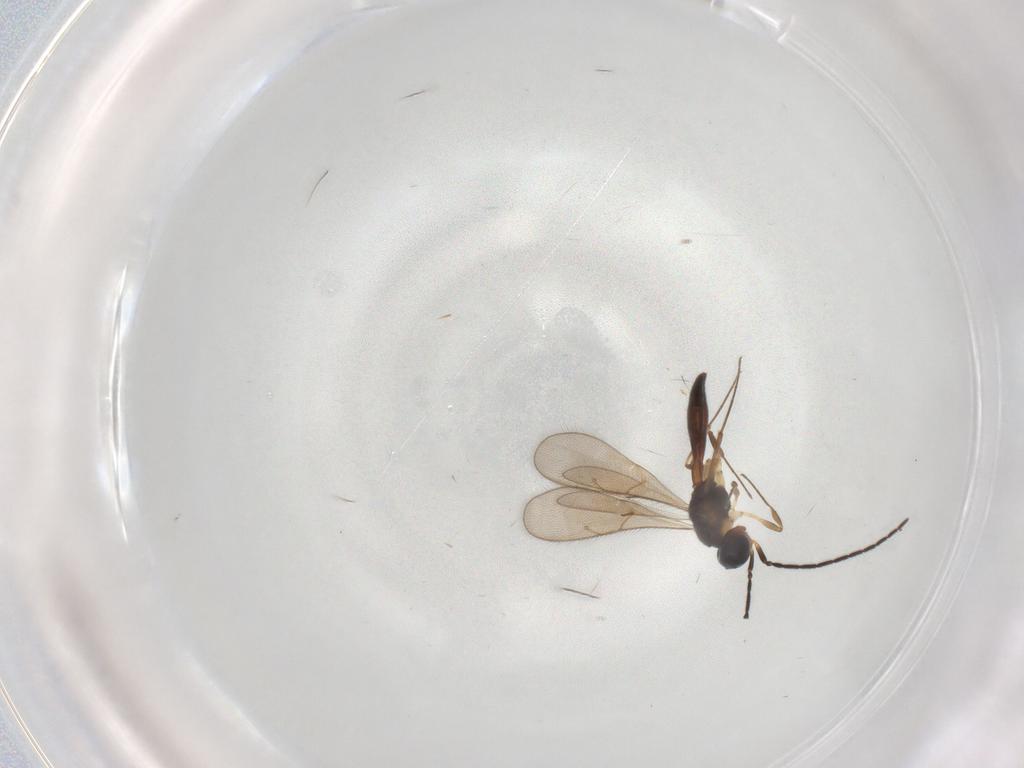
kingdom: Animalia
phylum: Arthropoda
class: Insecta
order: Hymenoptera
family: Scelionidae
